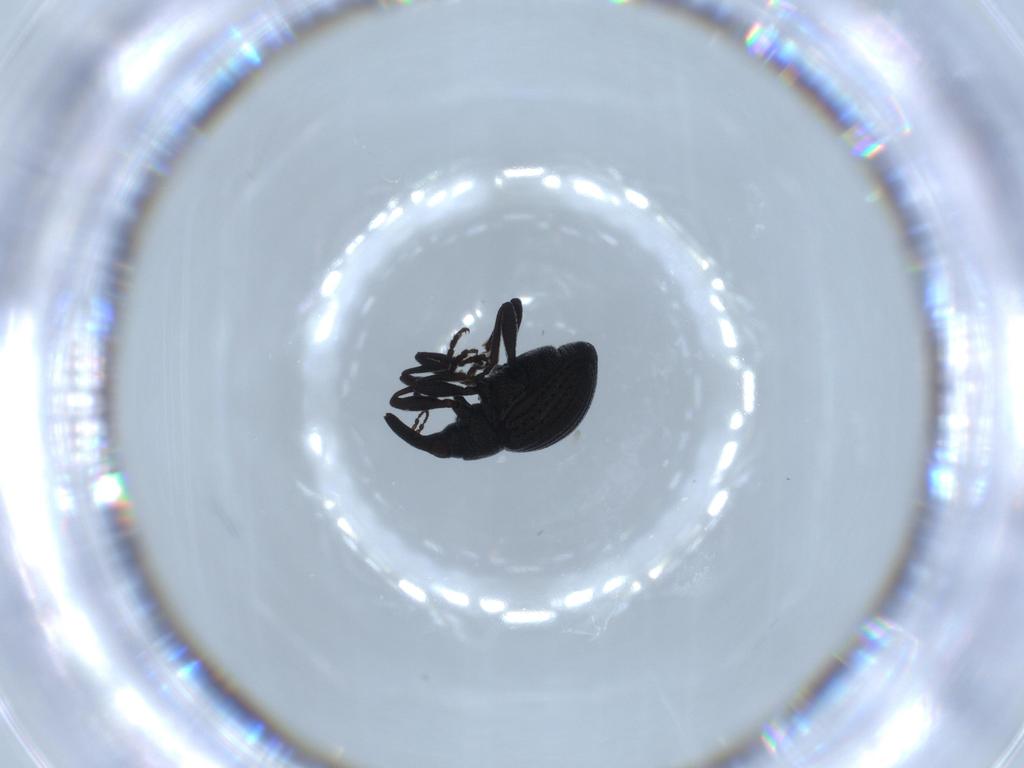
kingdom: Animalia
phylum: Arthropoda
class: Insecta
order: Coleoptera
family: Brentidae
